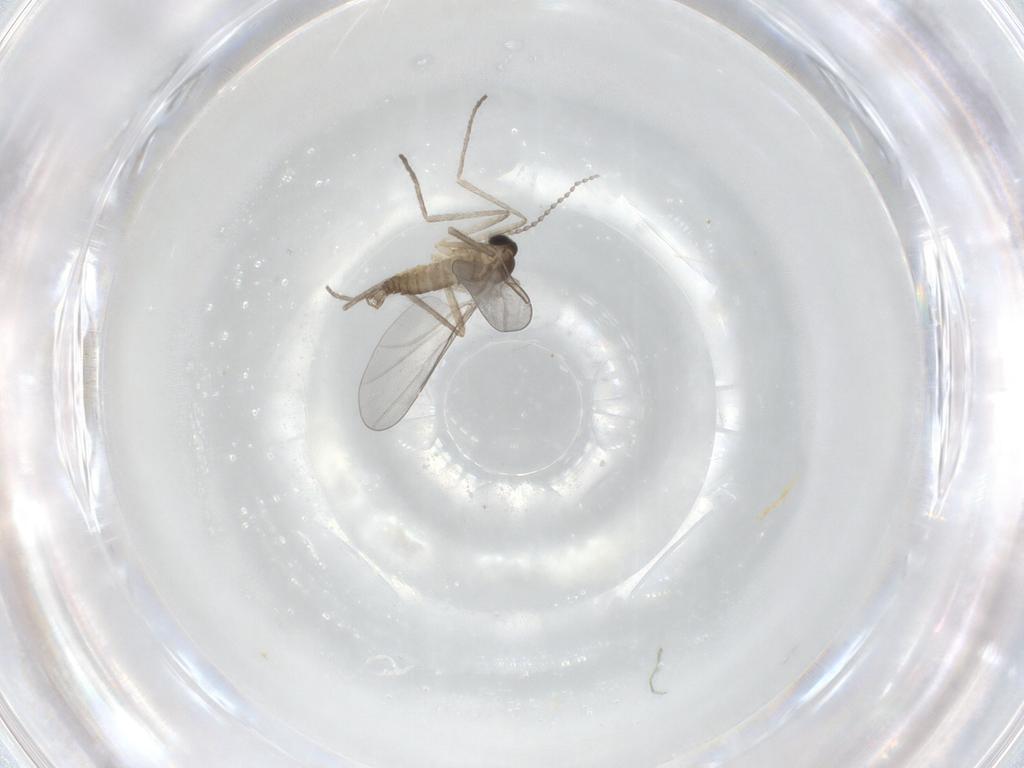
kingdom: Animalia
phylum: Arthropoda
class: Insecta
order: Diptera
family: Cecidomyiidae
